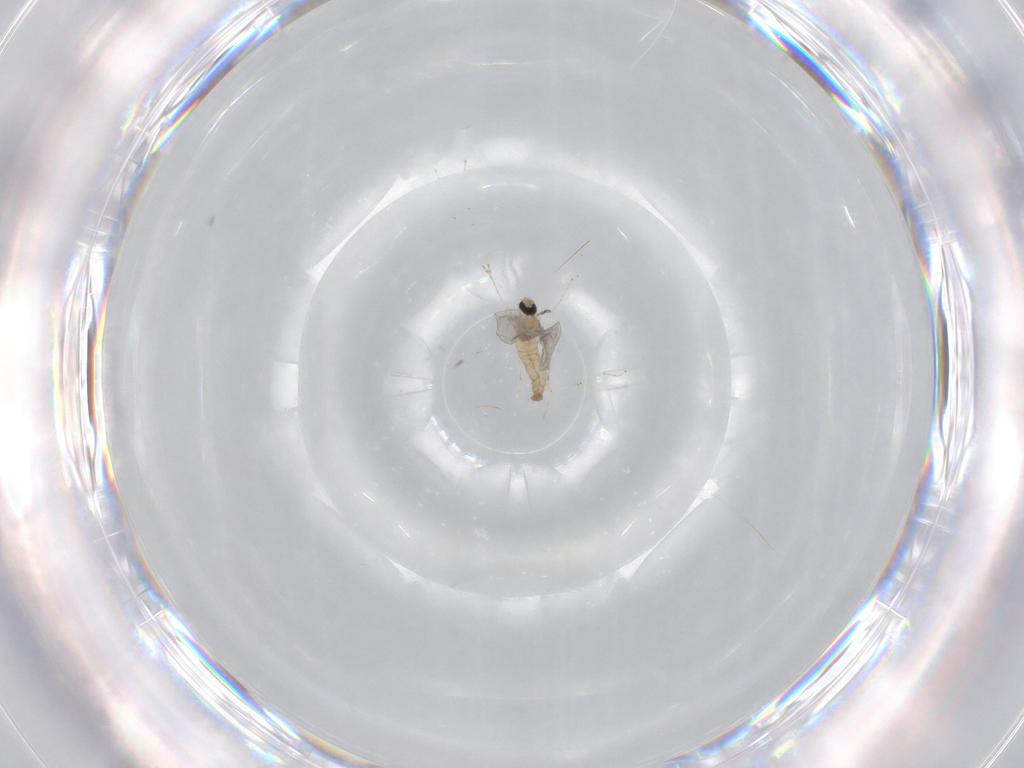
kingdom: Animalia
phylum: Arthropoda
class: Insecta
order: Diptera
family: Cecidomyiidae
